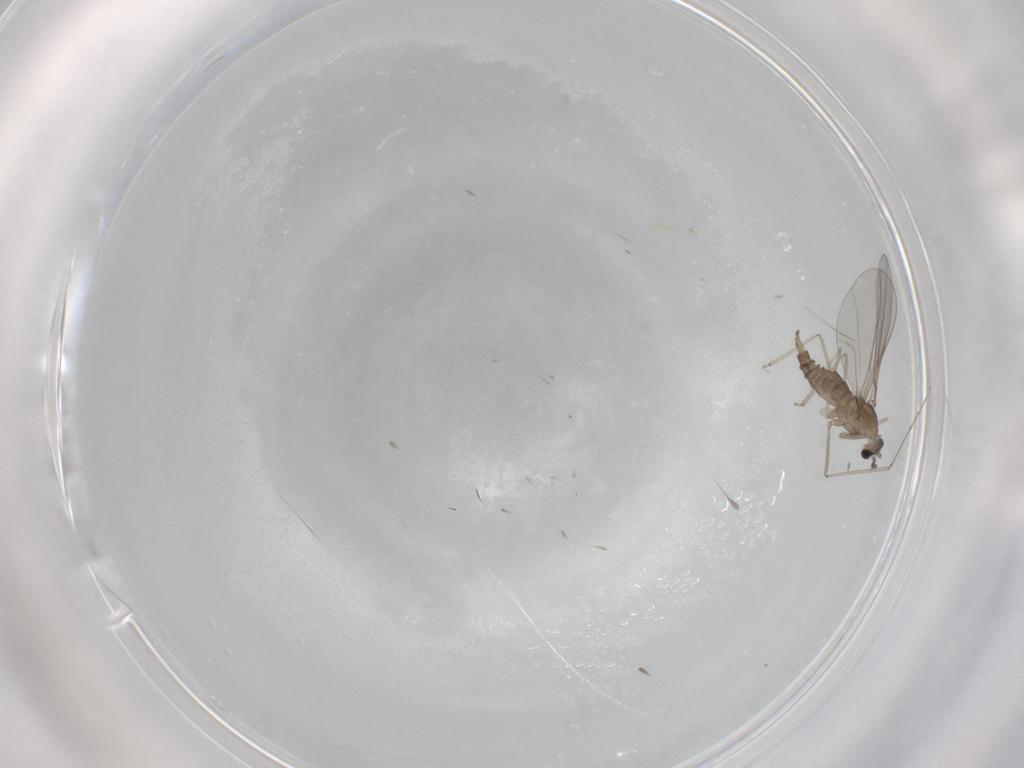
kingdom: Animalia
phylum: Arthropoda
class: Insecta
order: Diptera
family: Cecidomyiidae
